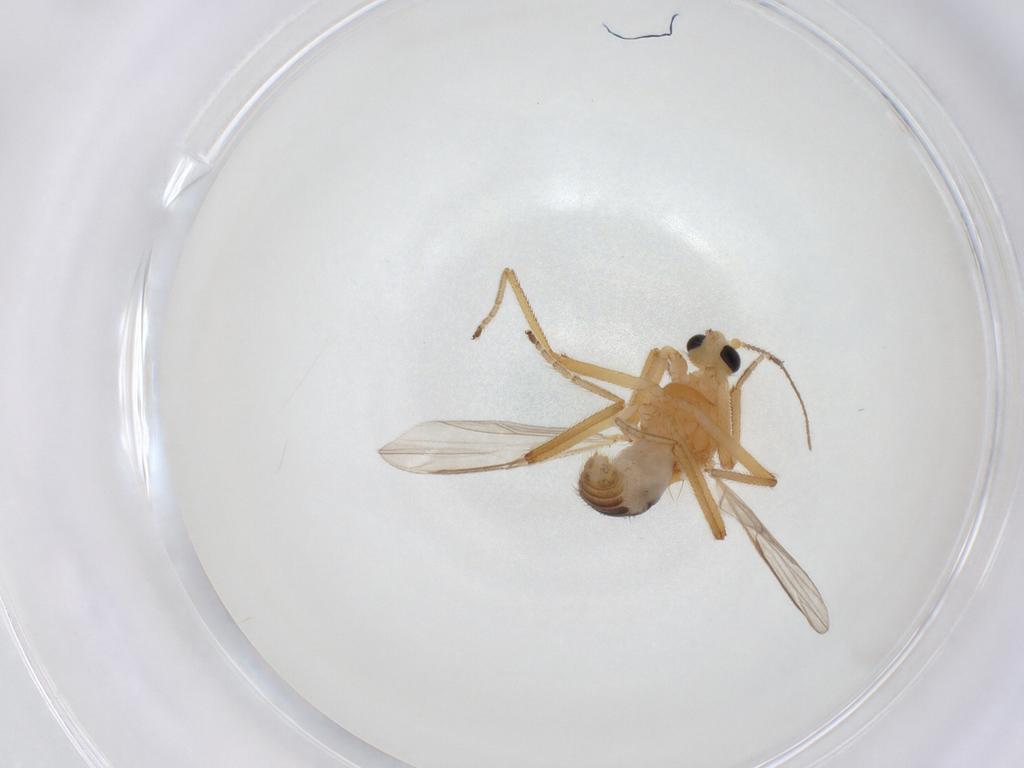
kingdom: Animalia
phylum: Arthropoda
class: Insecta
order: Diptera
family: Ceratopogonidae
